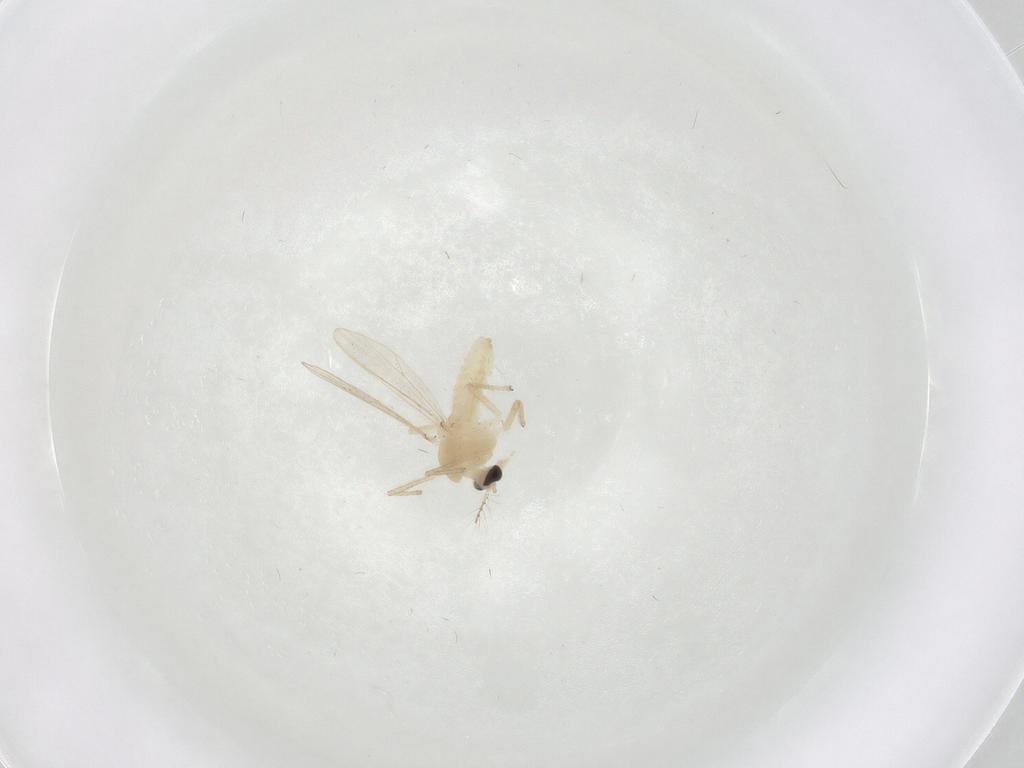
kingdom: Animalia
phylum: Arthropoda
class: Insecta
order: Diptera
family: Chironomidae
